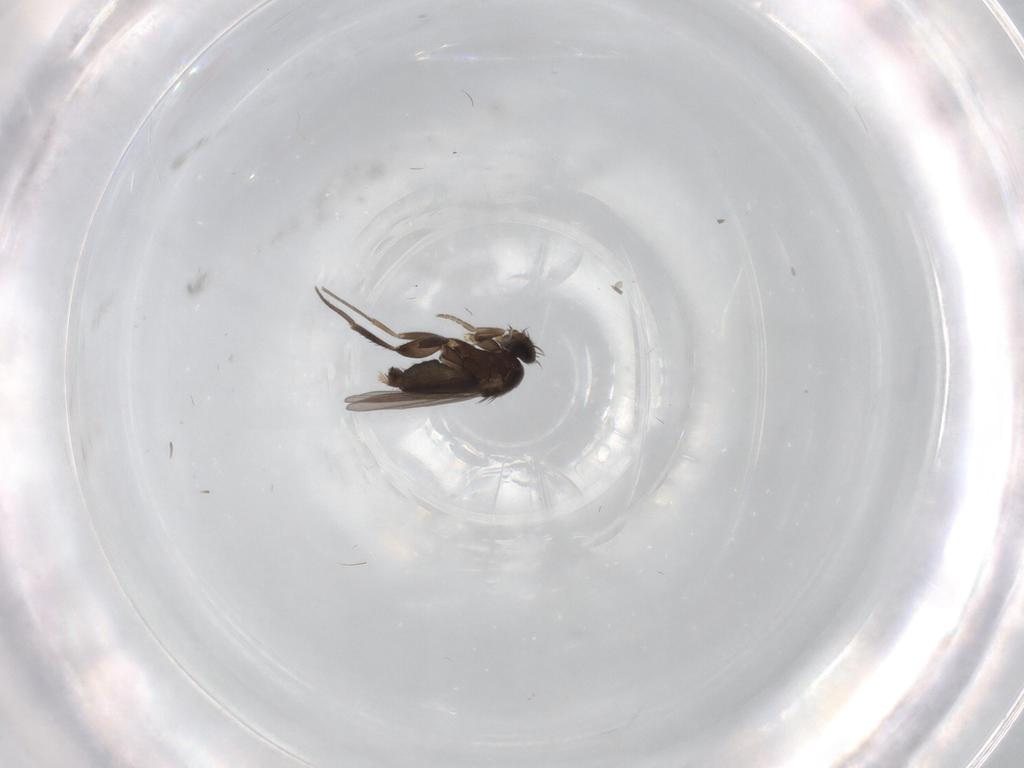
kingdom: Animalia
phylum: Arthropoda
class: Insecta
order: Diptera
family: Phoridae
